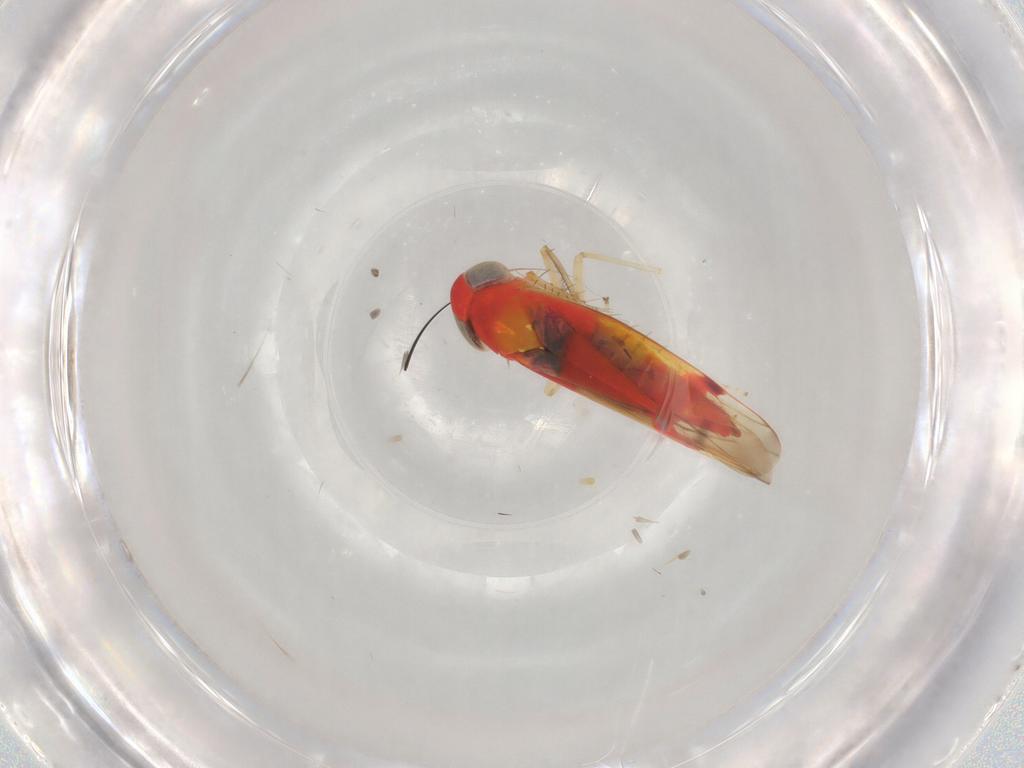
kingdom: Animalia
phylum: Arthropoda
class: Insecta
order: Hemiptera
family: Cicadellidae
